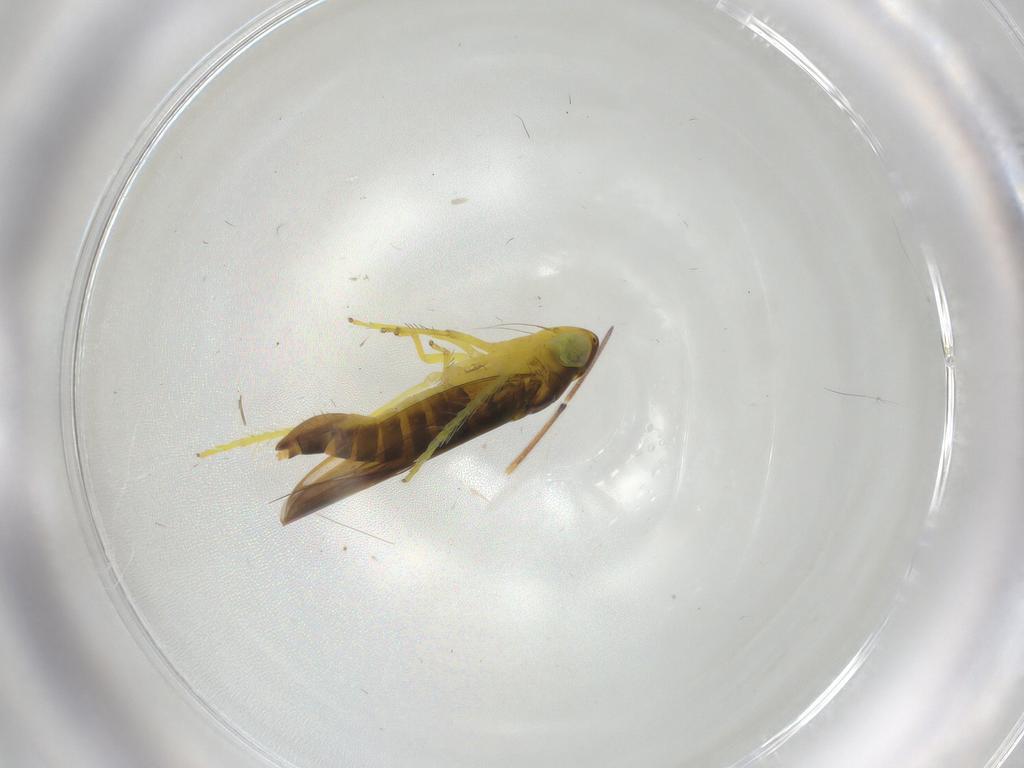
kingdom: Animalia
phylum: Arthropoda
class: Insecta
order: Hemiptera
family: Cicadellidae
